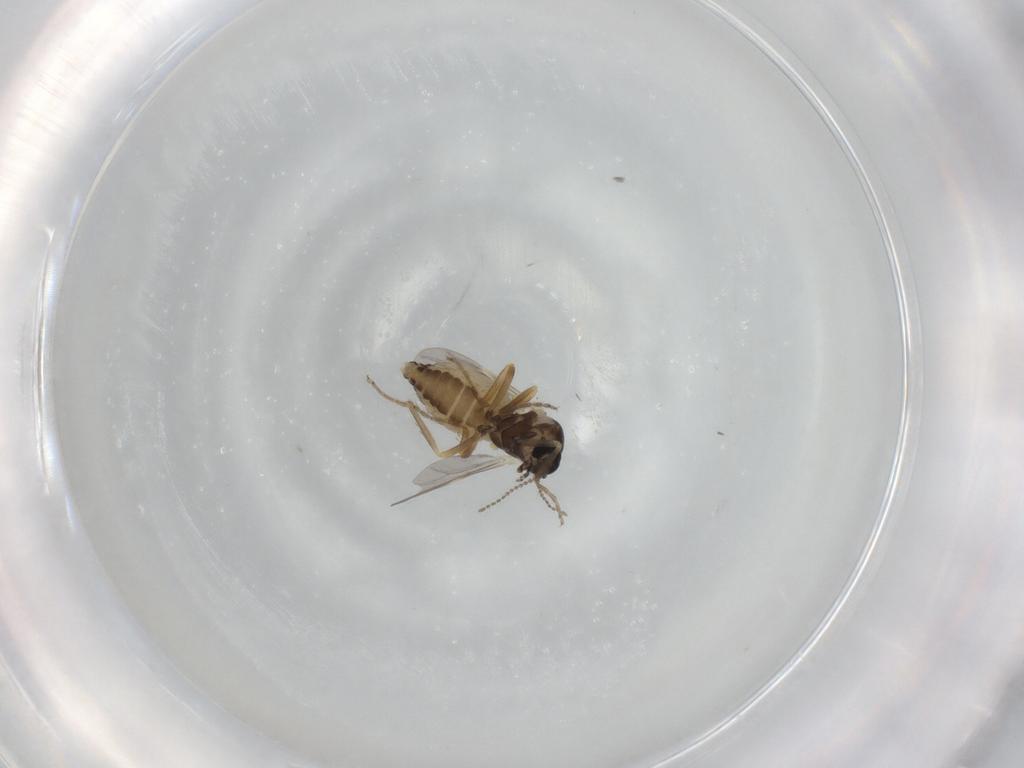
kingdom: Animalia
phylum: Arthropoda
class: Insecta
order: Diptera
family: Ceratopogonidae
